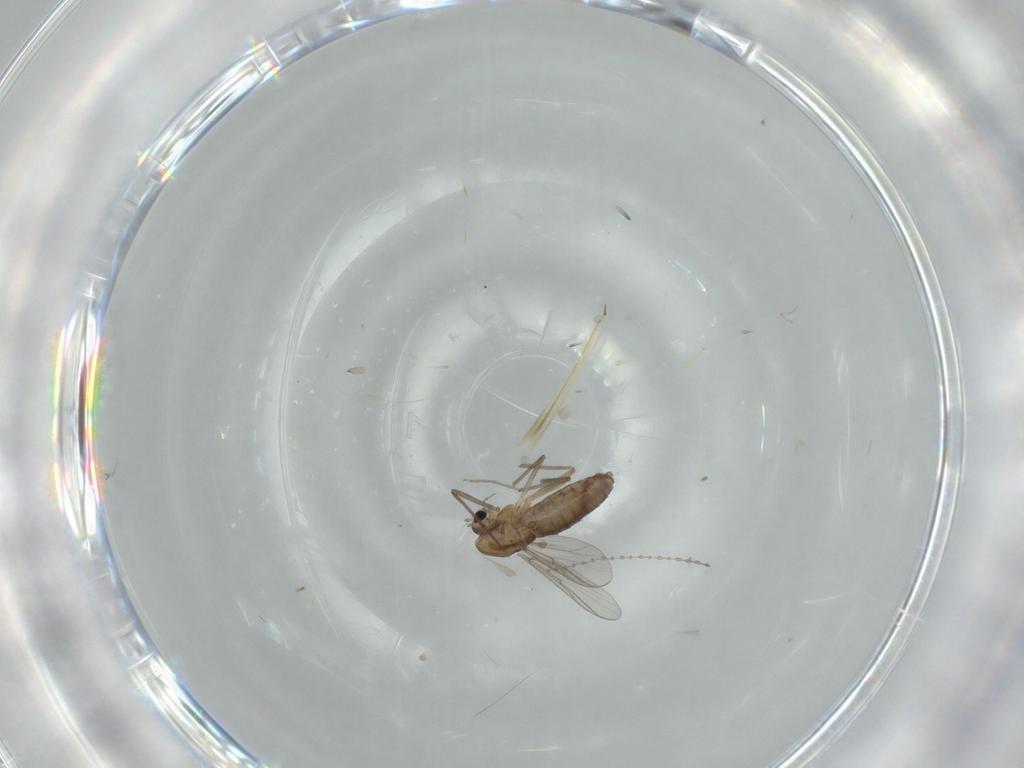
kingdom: Animalia
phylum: Arthropoda
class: Insecta
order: Diptera
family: Chironomidae
